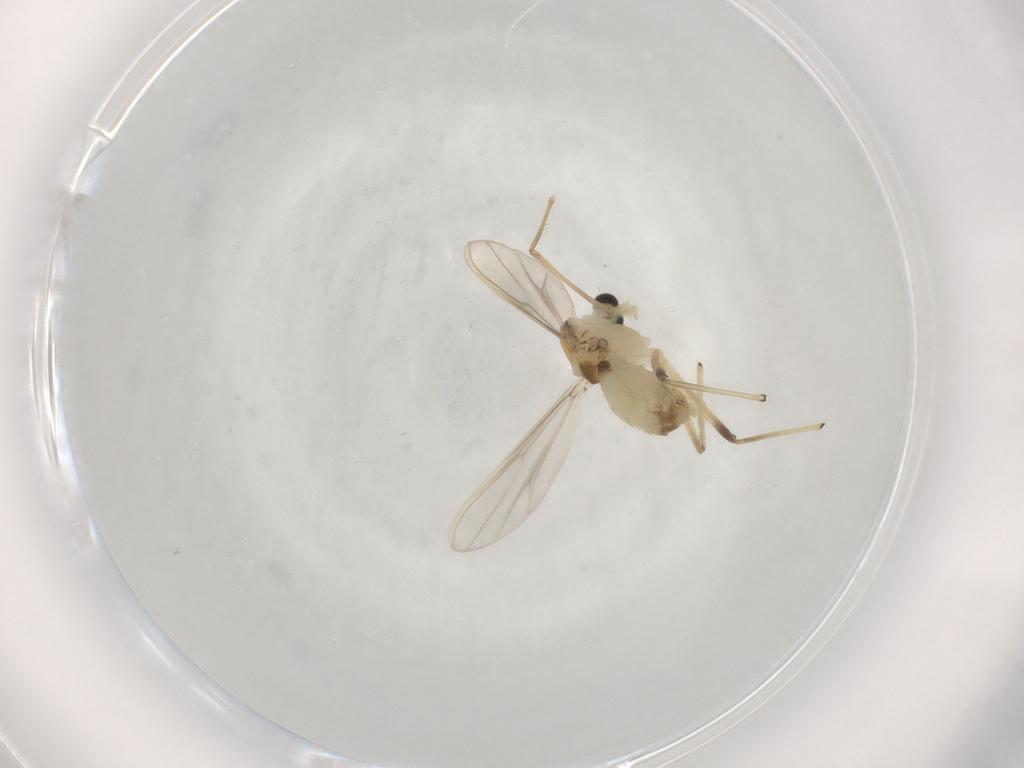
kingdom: Animalia
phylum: Arthropoda
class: Insecta
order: Diptera
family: Chironomidae
